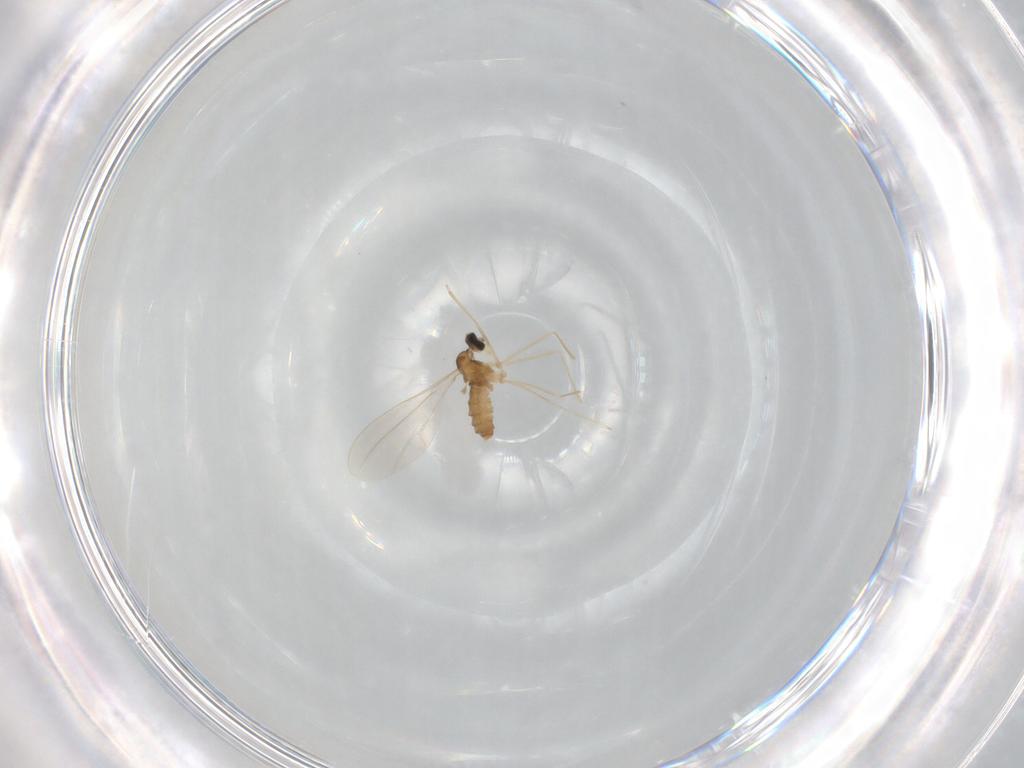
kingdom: Animalia
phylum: Arthropoda
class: Insecta
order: Diptera
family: Cecidomyiidae
